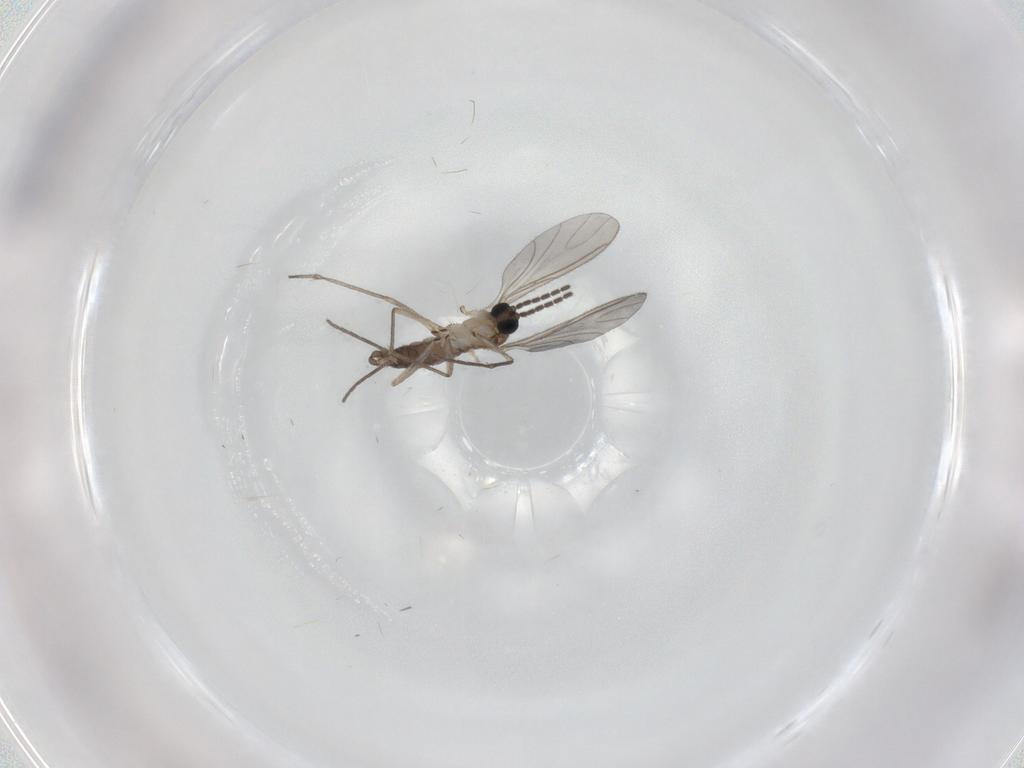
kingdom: Animalia
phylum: Arthropoda
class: Insecta
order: Diptera
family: Sciaridae
